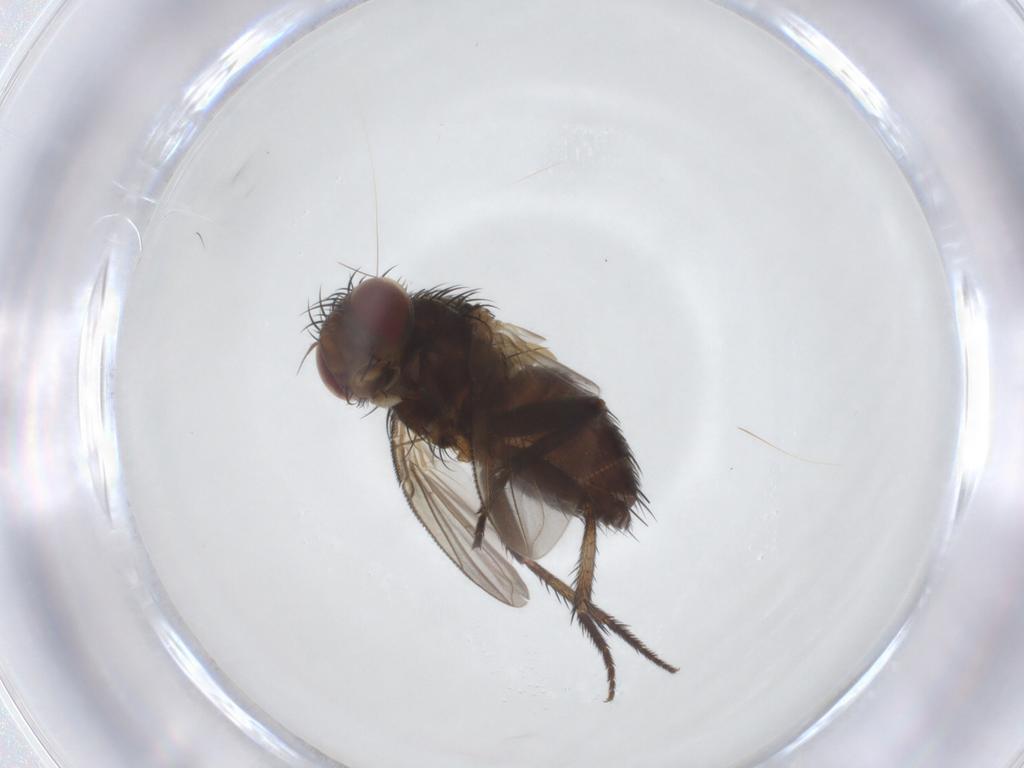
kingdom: Animalia
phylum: Arthropoda
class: Insecta
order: Diptera
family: Tachinidae
